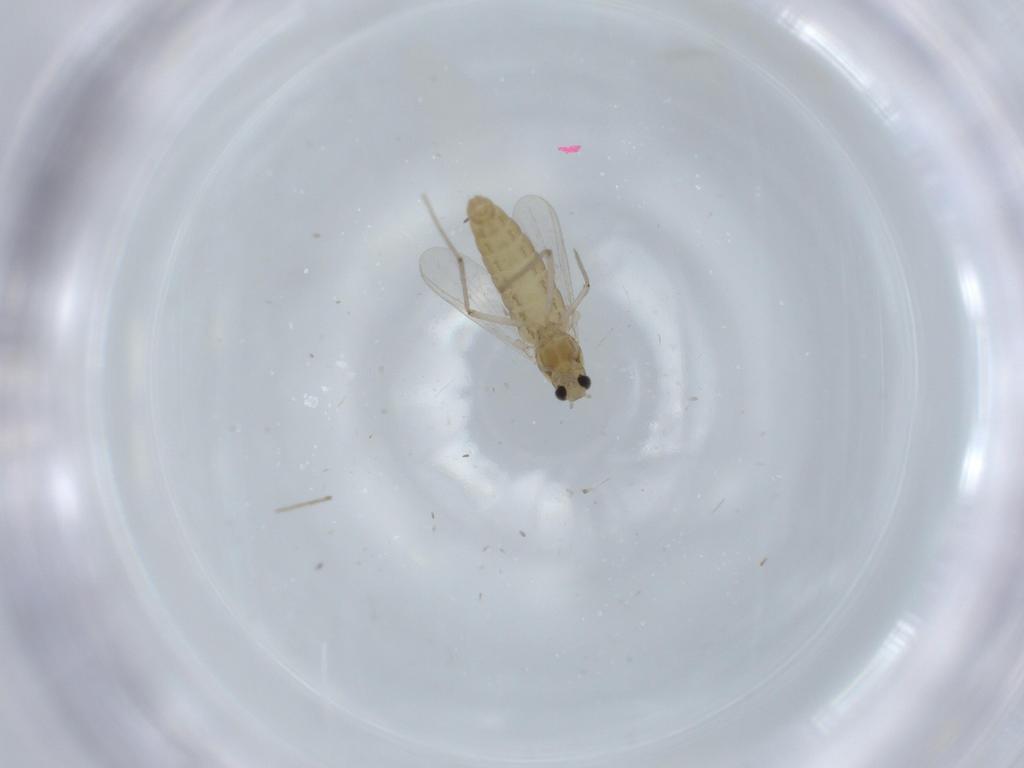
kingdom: Animalia
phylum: Arthropoda
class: Insecta
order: Diptera
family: Chironomidae
